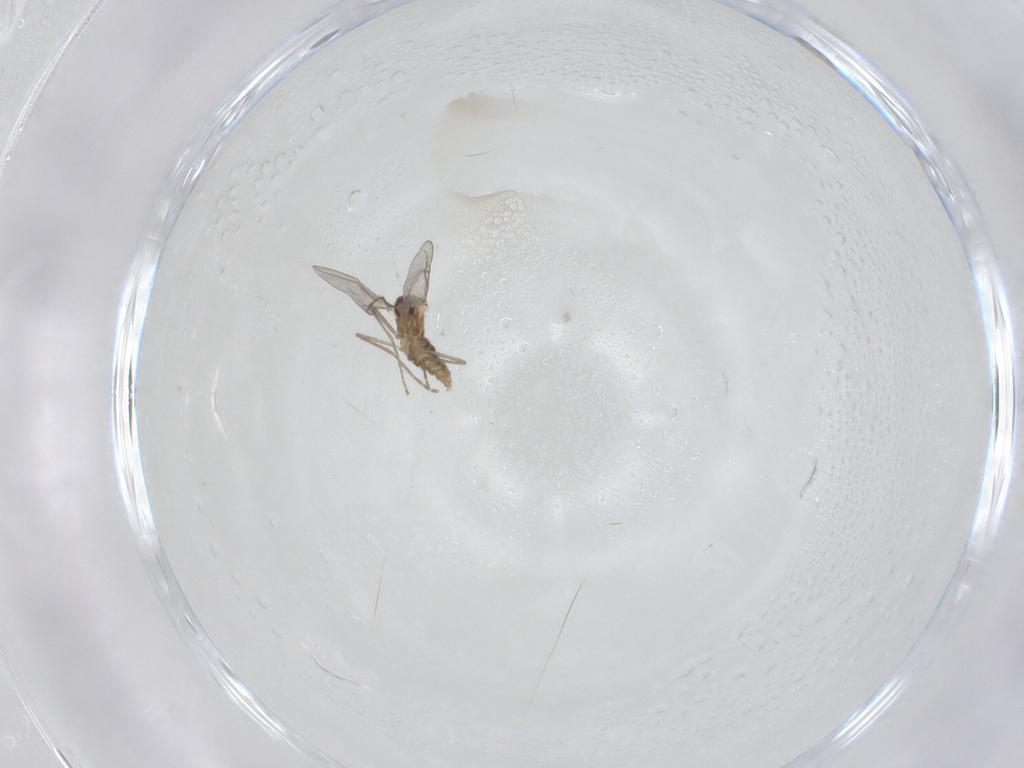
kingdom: Animalia
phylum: Arthropoda
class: Insecta
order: Diptera
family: Cecidomyiidae
